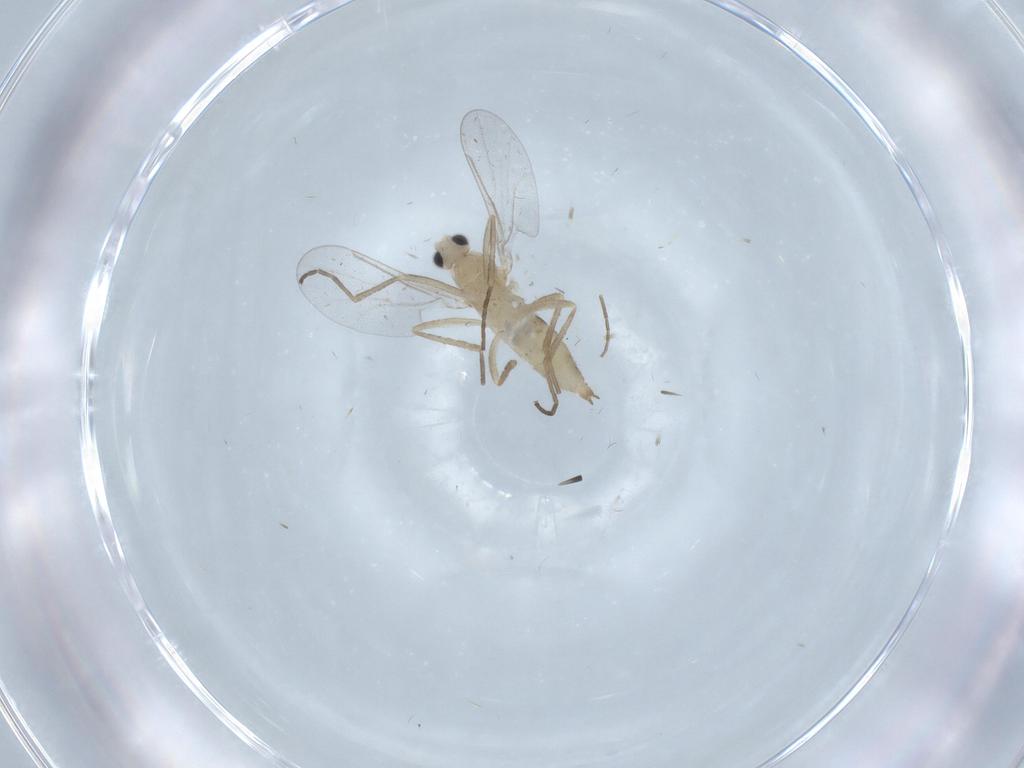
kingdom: Animalia
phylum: Arthropoda
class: Insecta
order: Diptera
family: Cecidomyiidae
